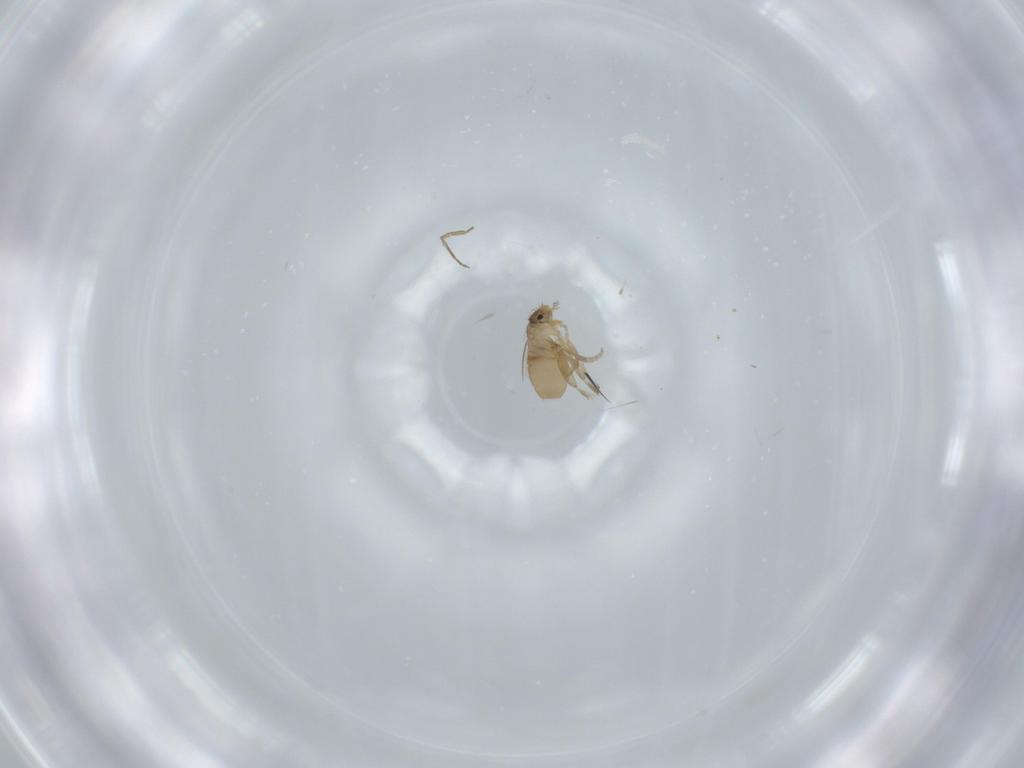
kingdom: Animalia
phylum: Arthropoda
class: Insecta
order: Diptera
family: Phoridae
